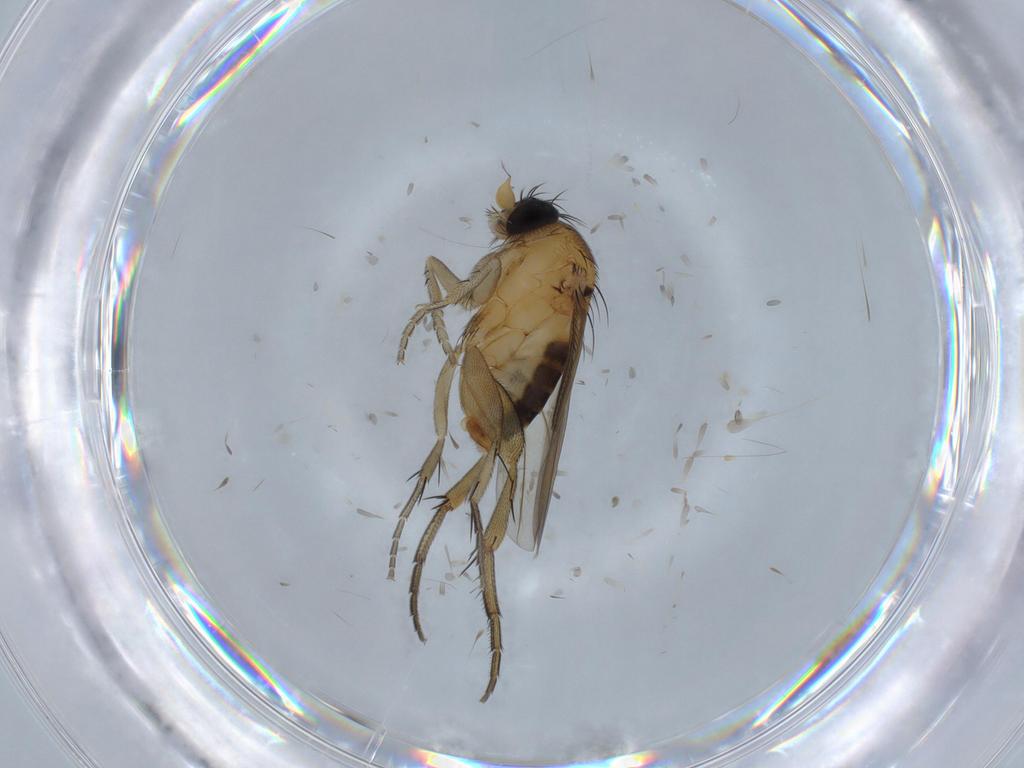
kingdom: Animalia
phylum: Arthropoda
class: Insecta
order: Diptera
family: Phoridae
